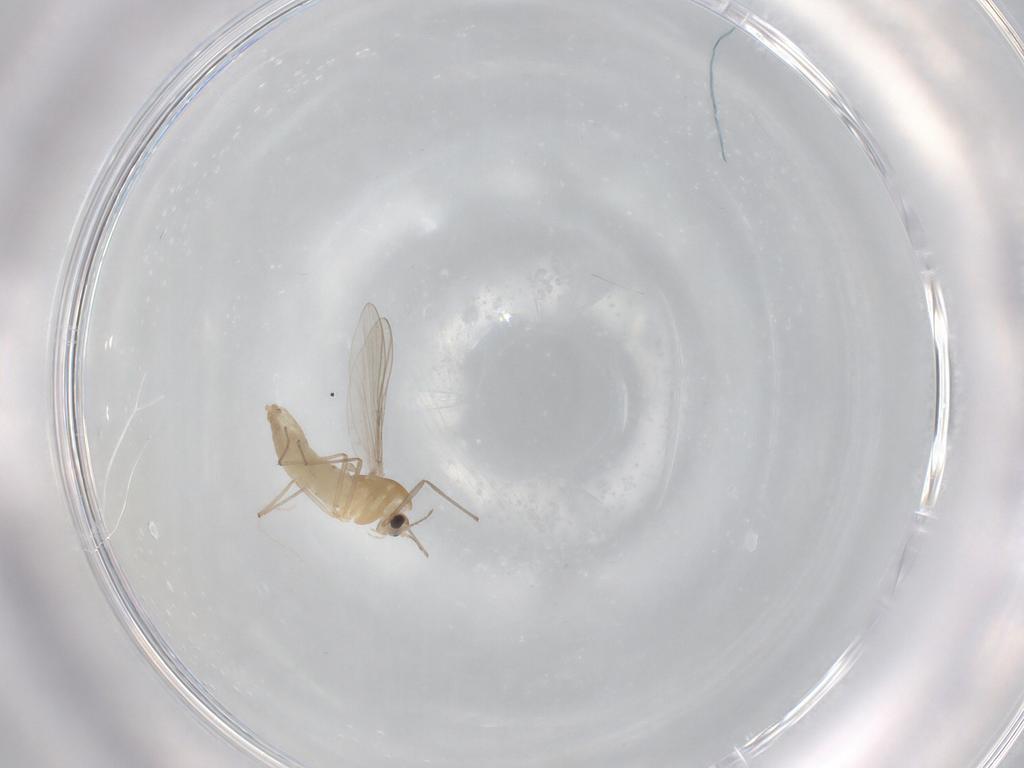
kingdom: Animalia
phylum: Arthropoda
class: Insecta
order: Diptera
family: Chironomidae
